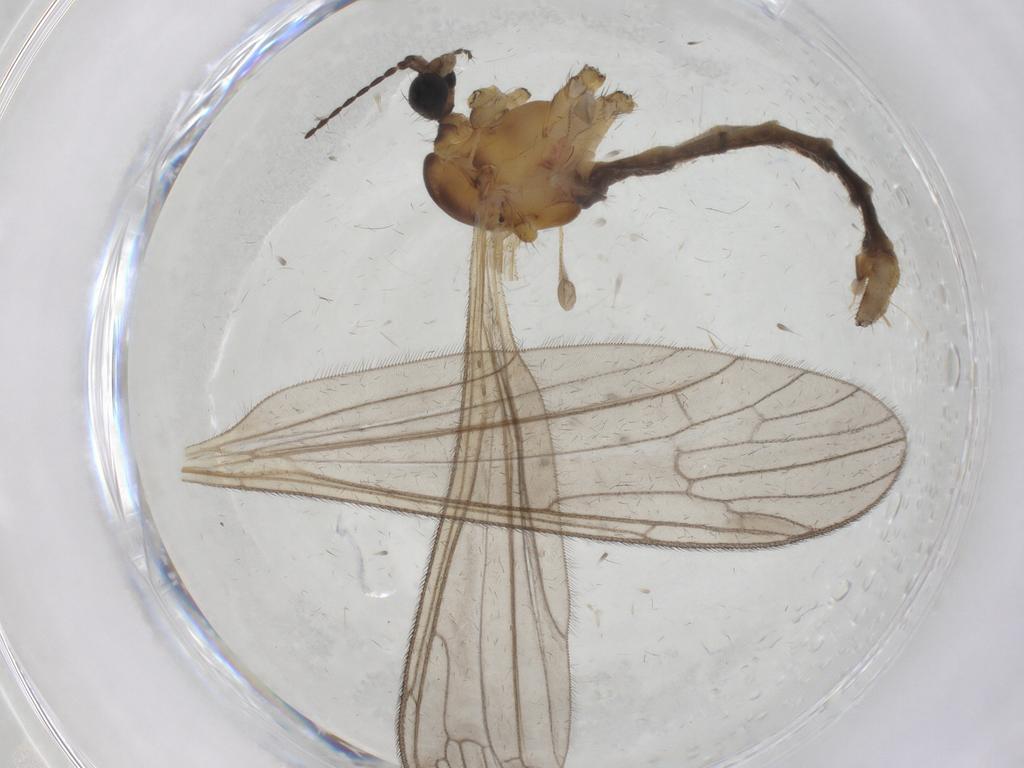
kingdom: Animalia
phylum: Arthropoda
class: Insecta
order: Diptera
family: Limoniidae
